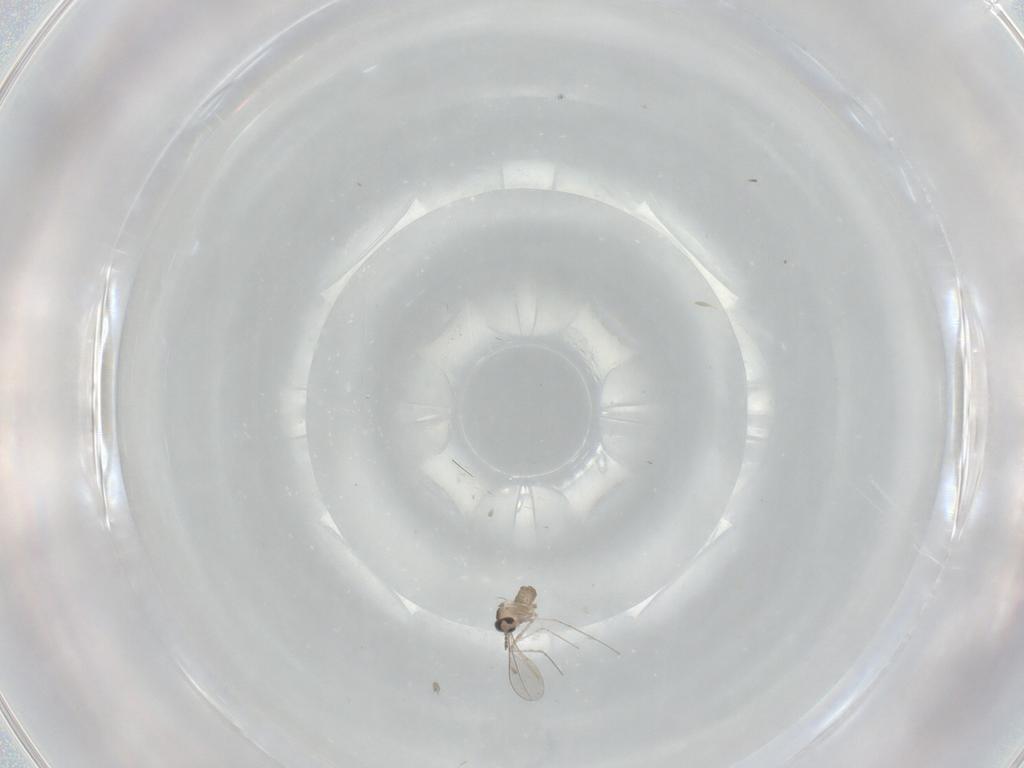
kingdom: Animalia
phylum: Arthropoda
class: Insecta
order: Diptera
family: Cecidomyiidae
